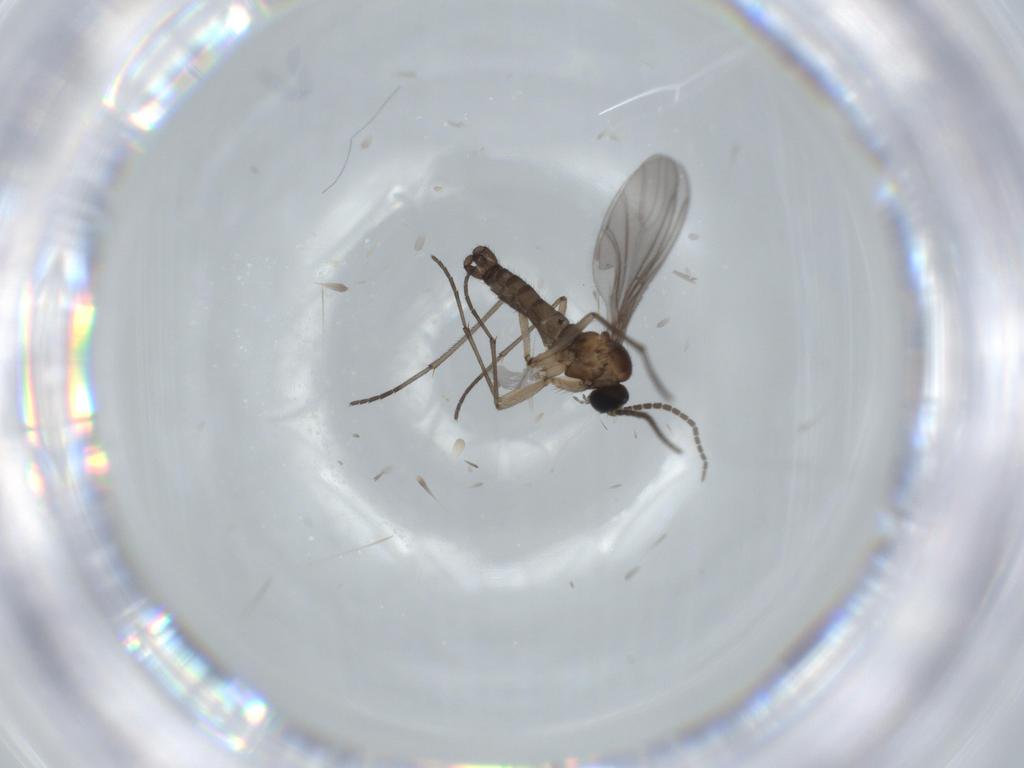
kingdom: Animalia
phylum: Arthropoda
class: Insecta
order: Diptera
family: Sciaridae
